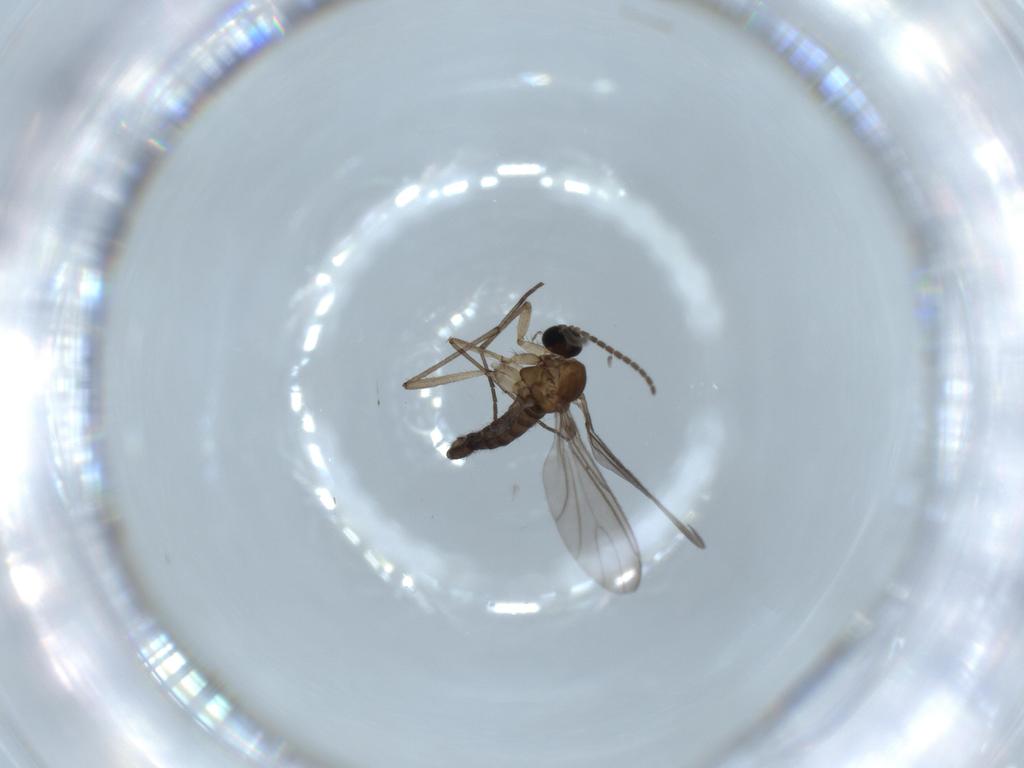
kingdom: Animalia
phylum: Arthropoda
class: Insecta
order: Diptera
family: Sciaridae
